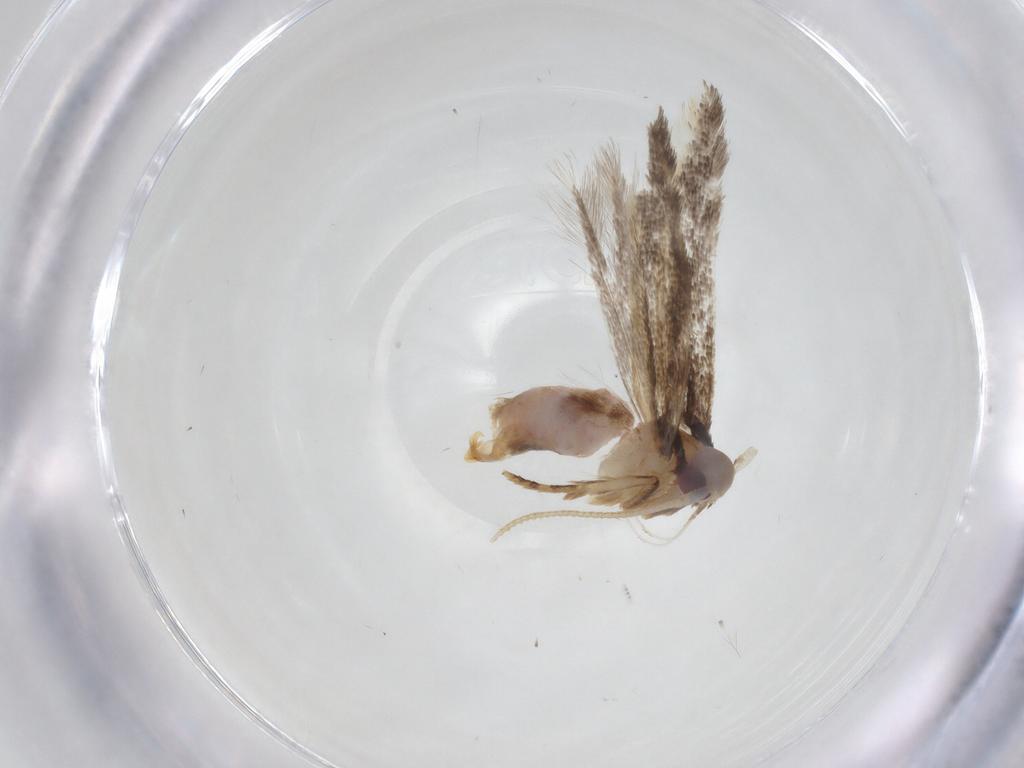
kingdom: Animalia
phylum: Arthropoda
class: Insecta
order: Lepidoptera
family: Cosmopterigidae
